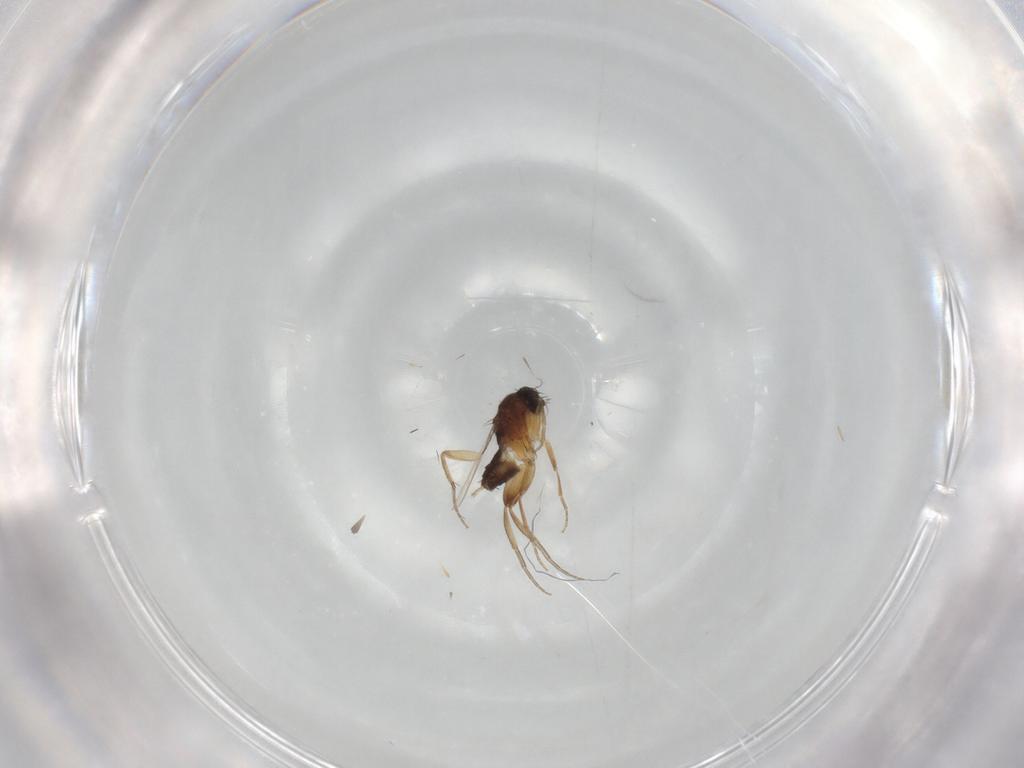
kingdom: Animalia
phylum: Arthropoda
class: Insecta
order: Diptera
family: Phoridae
